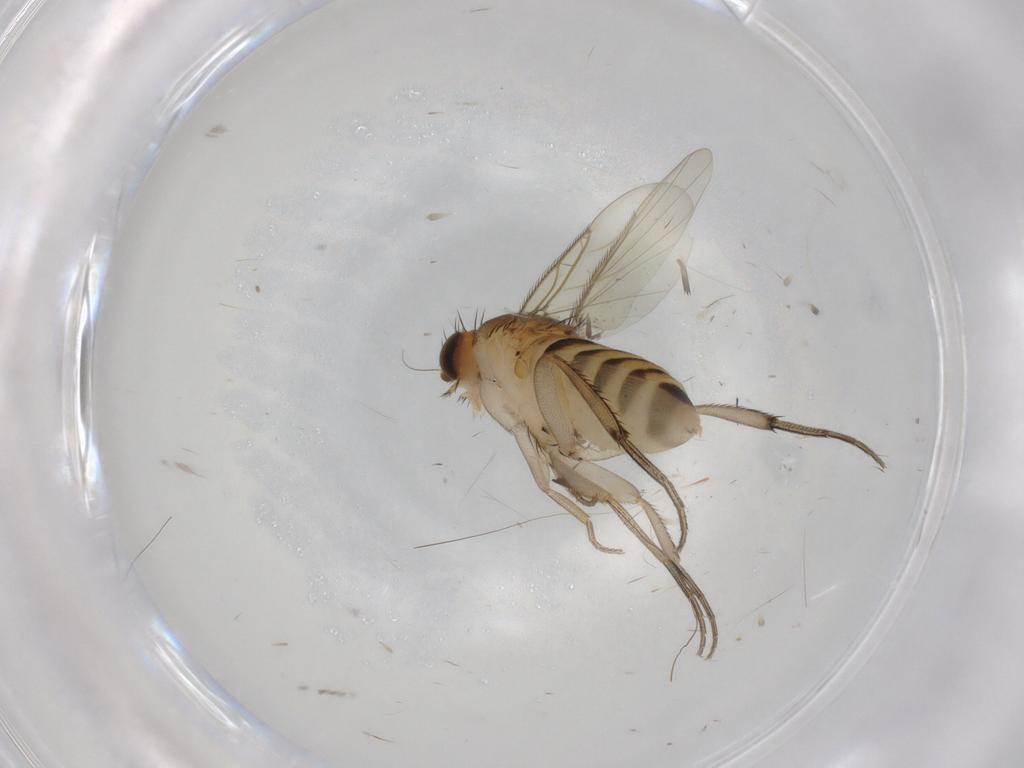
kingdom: Animalia
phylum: Arthropoda
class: Insecta
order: Diptera
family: Phoridae
